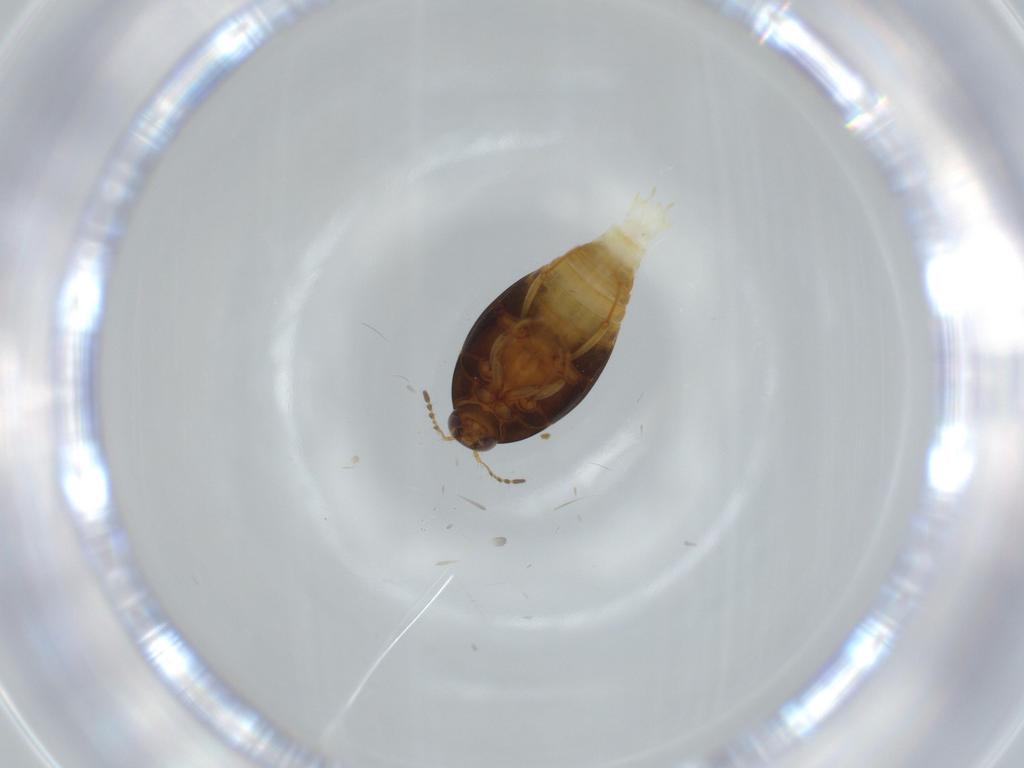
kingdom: Animalia
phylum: Arthropoda
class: Insecta
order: Coleoptera
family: Staphylinidae
